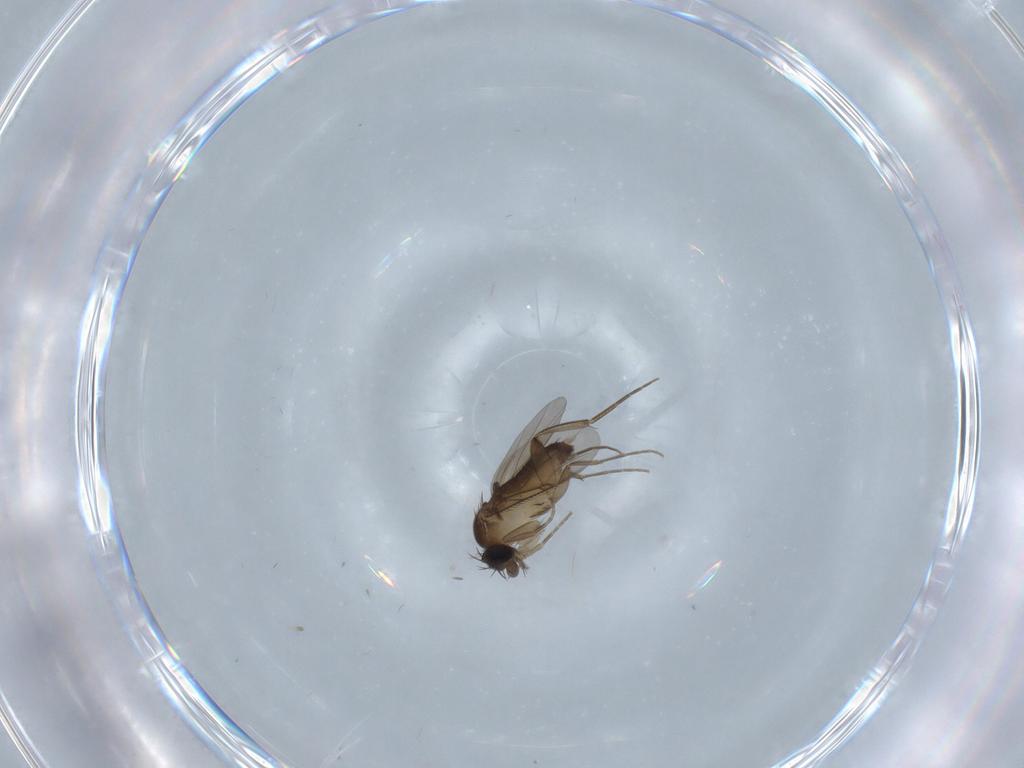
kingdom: Animalia
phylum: Arthropoda
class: Insecta
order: Diptera
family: Phoridae
